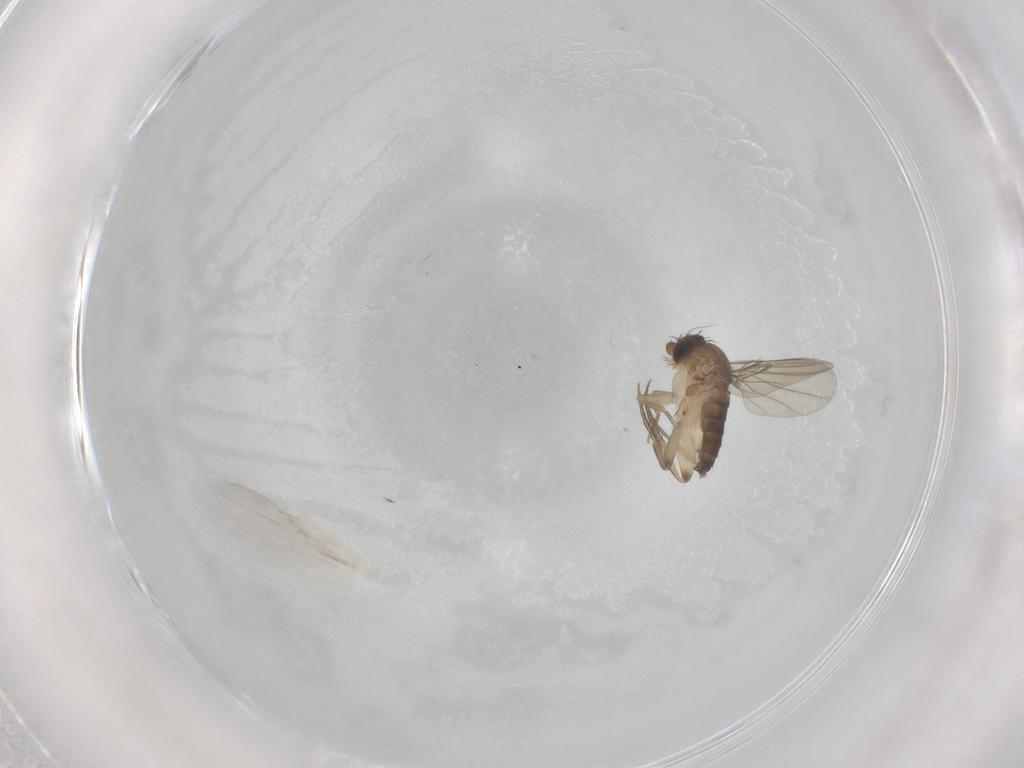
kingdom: Animalia
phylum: Arthropoda
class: Insecta
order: Diptera
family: Phoridae
